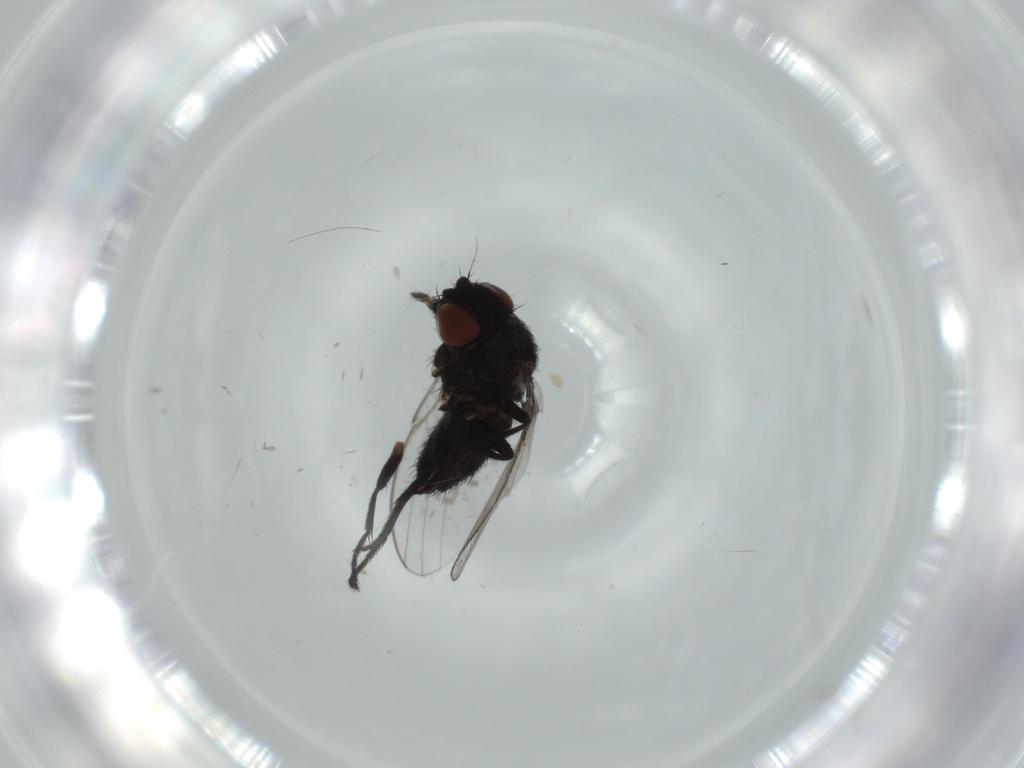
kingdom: Animalia
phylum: Arthropoda
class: Insecta
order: Diptera
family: Milichiidae
